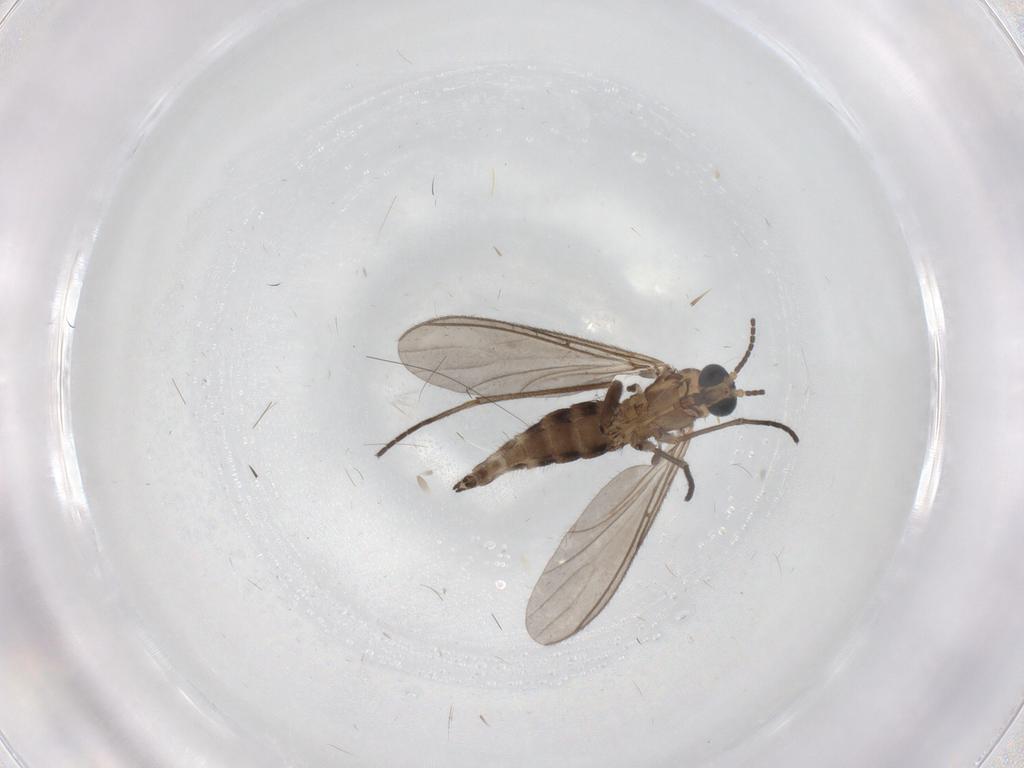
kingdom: Animalia
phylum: Arthropoda
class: Insecta
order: Diptera
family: Sciaridae
